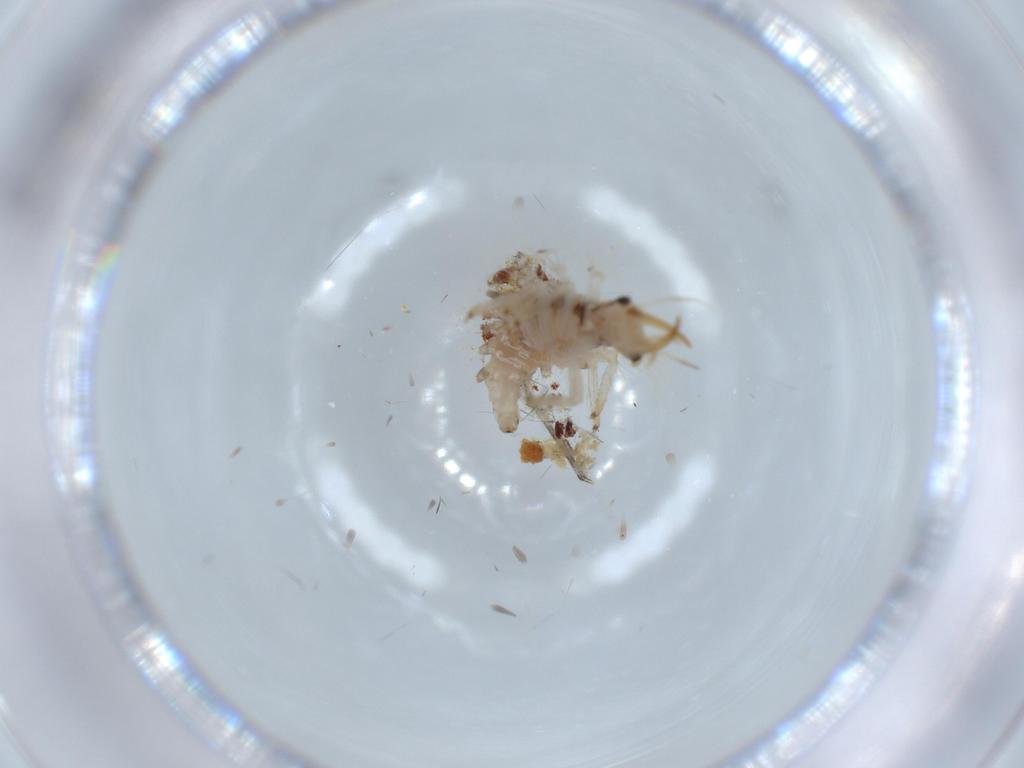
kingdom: Animalia
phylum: Arthropoda
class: Insecta
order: Neuroptera
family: Chrysopidae
